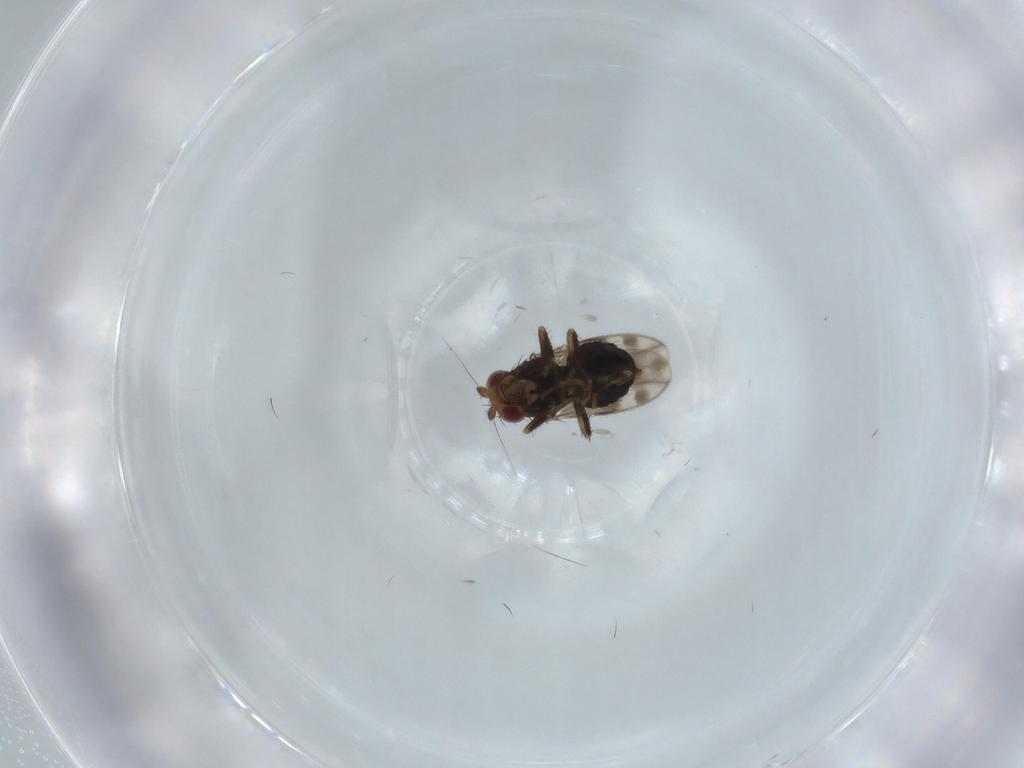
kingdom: Animalia
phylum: Arthropoda
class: Insecta
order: Diptera
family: Sphaeroceridae
